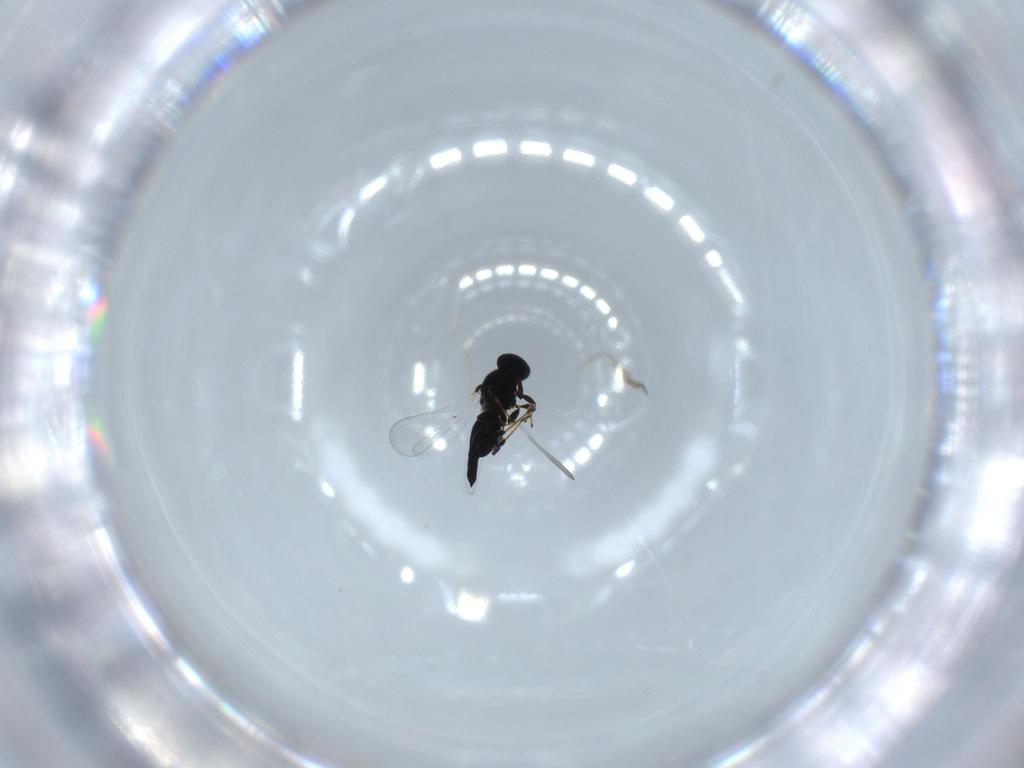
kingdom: Animalia
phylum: Arthropoda
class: Insecta
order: Hymenoptera
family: Platygastridae
